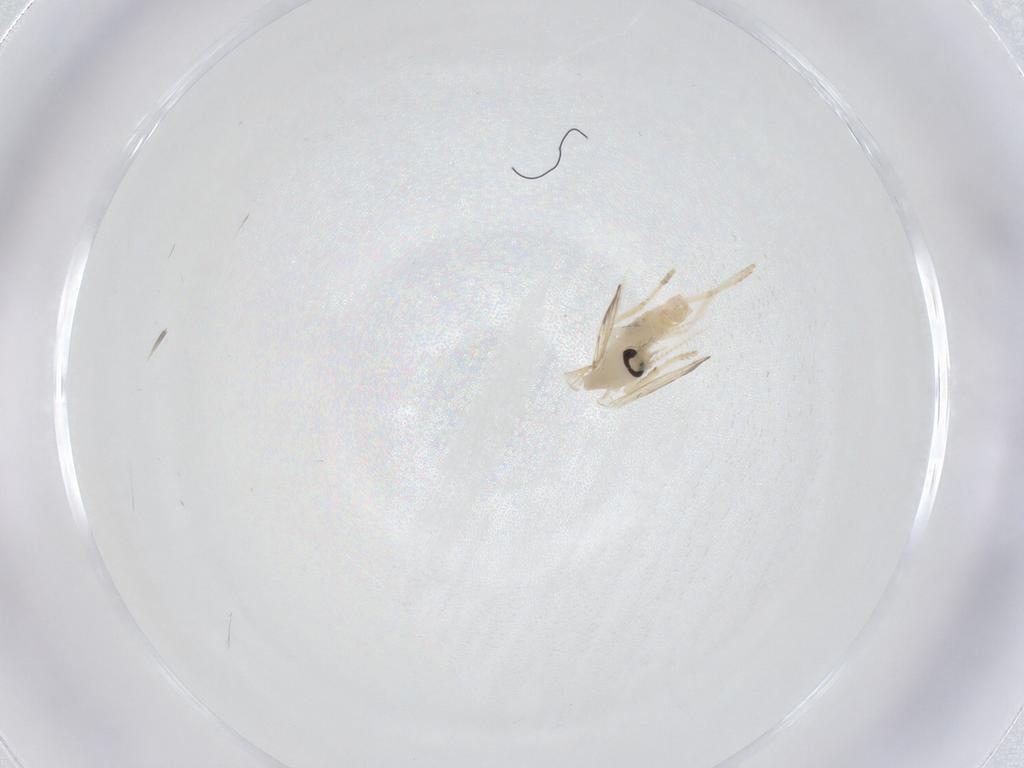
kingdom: Animalia
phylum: Arthropoda
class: Insecta
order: Diptera
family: Psychodidae
